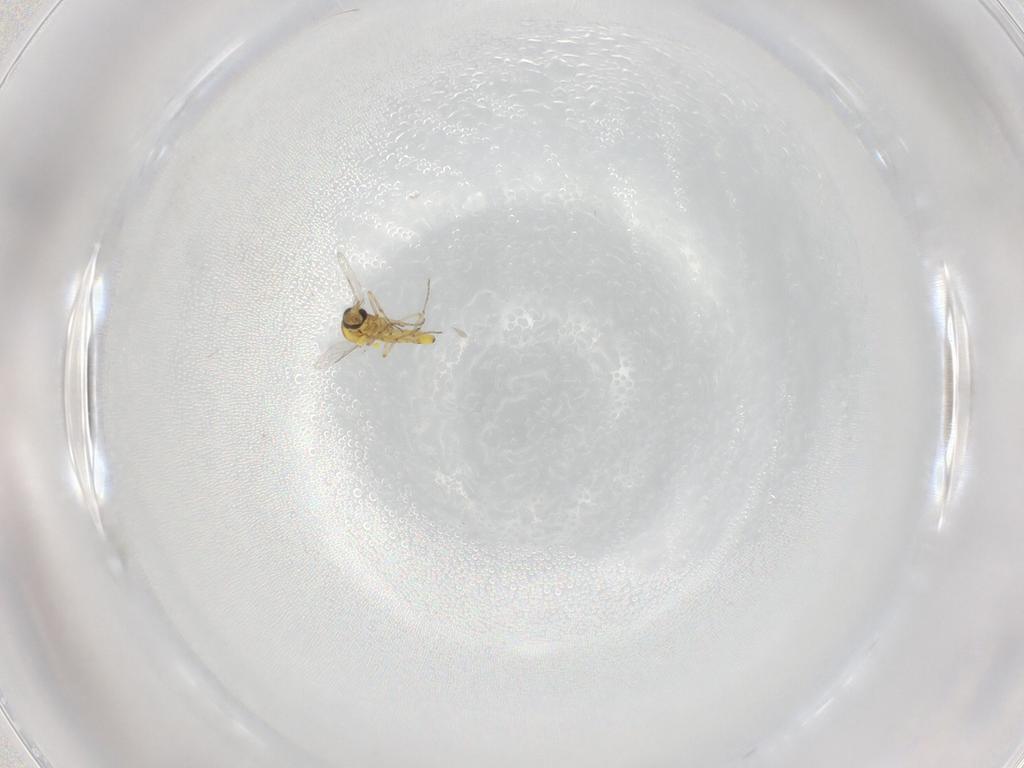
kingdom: Animalia
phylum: Arthropoda
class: Insecta
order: Diptera
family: Ceratopogonidae
